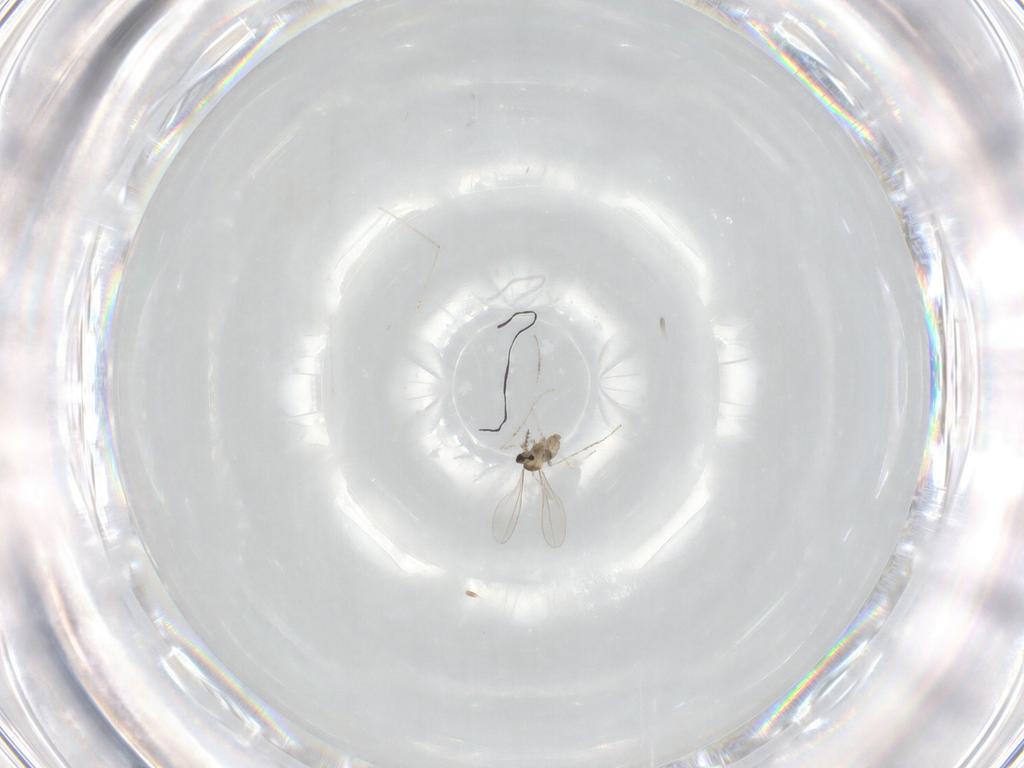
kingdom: Animalia
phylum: Arthropoda
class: Insecta
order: Diptera
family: Cecidomyiidae
